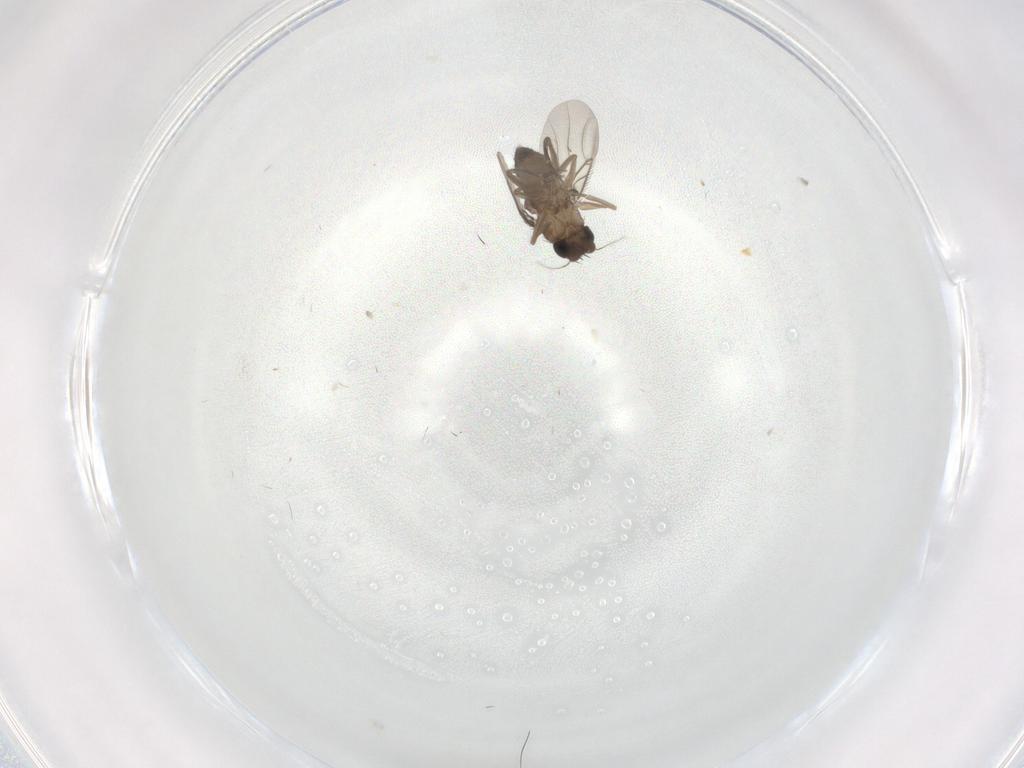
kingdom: Animalia
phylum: Arthropoda
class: Insecta
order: Diptera
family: Phoridae
